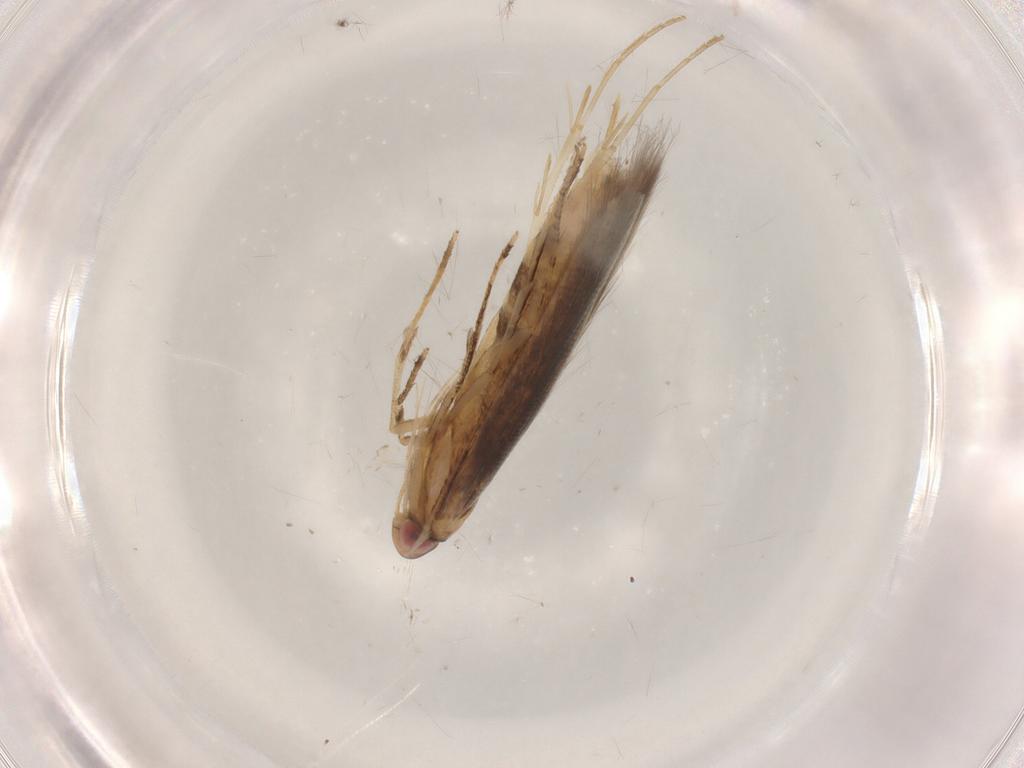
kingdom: Animalia
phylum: Arthropoda
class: Insecta
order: Lepidoptera
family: Cosmopterigidae
